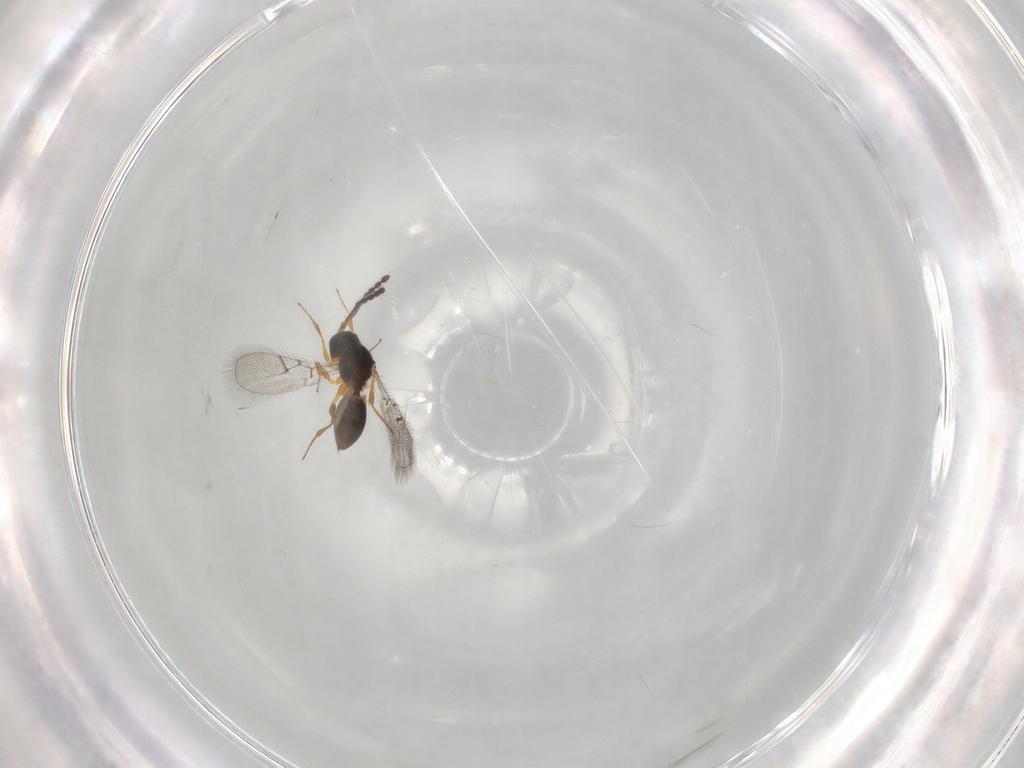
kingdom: Animalia
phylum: Arthropoda
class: Insecta
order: Hymenoptera
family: Figitidae
